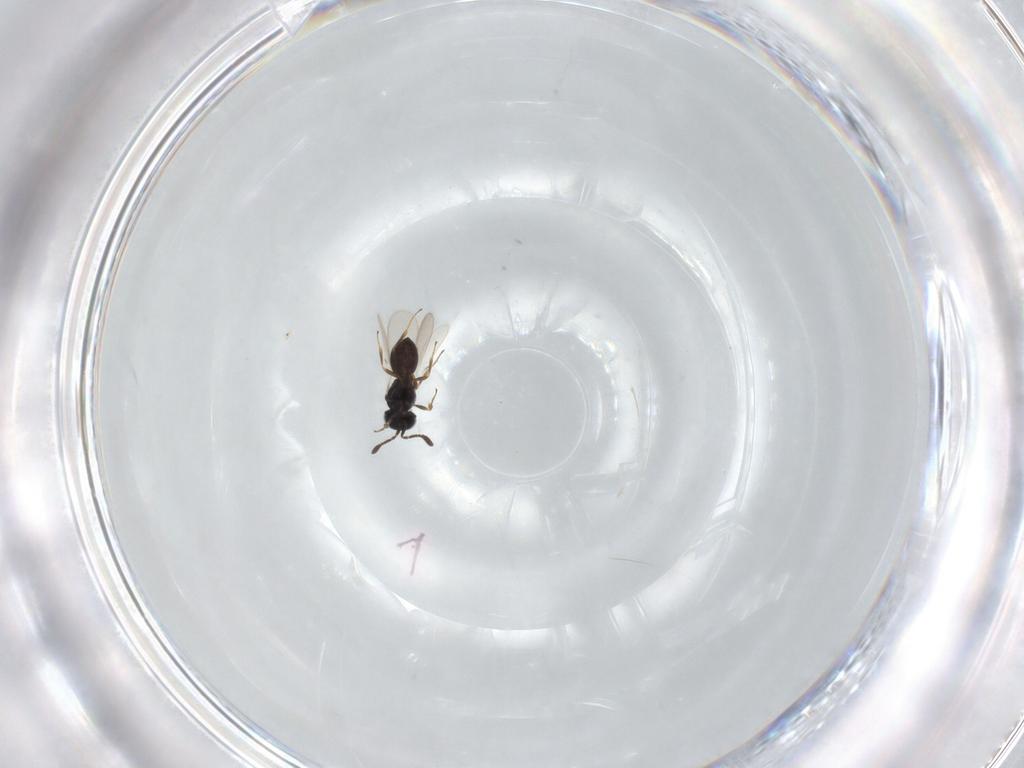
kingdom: Animalia
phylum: Arthropoda
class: Insecta
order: Hymenoptera
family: Scelionidae
